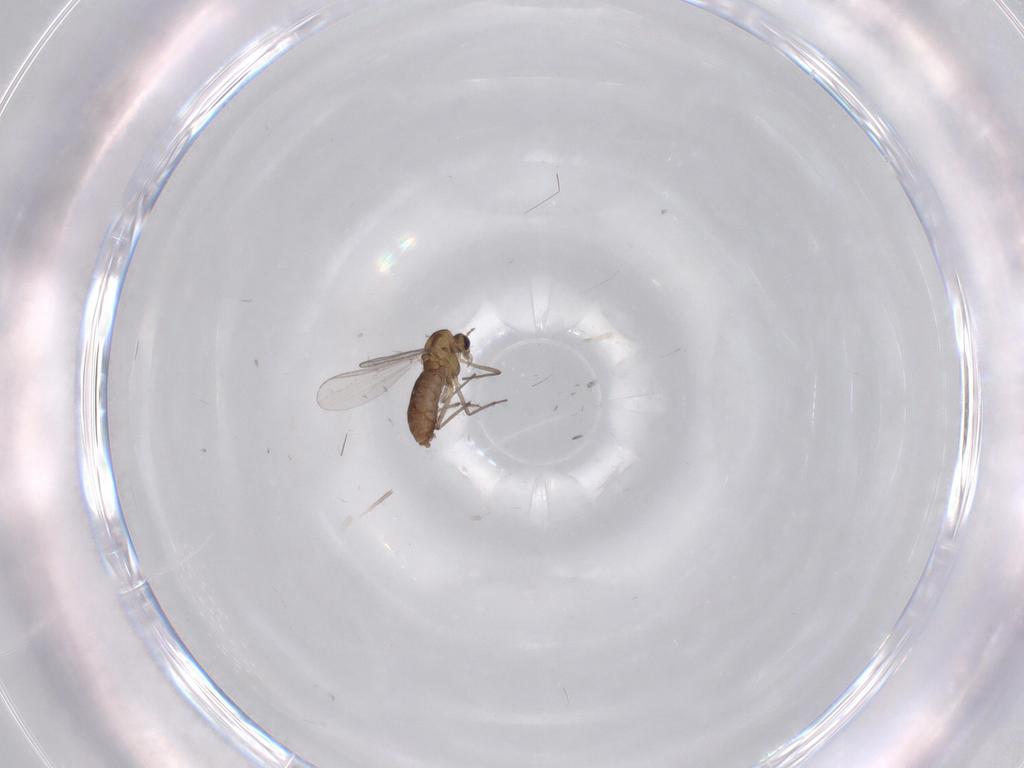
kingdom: Animalia
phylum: Arthropoda
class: Insecta
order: Diptera
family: Chironomidae
